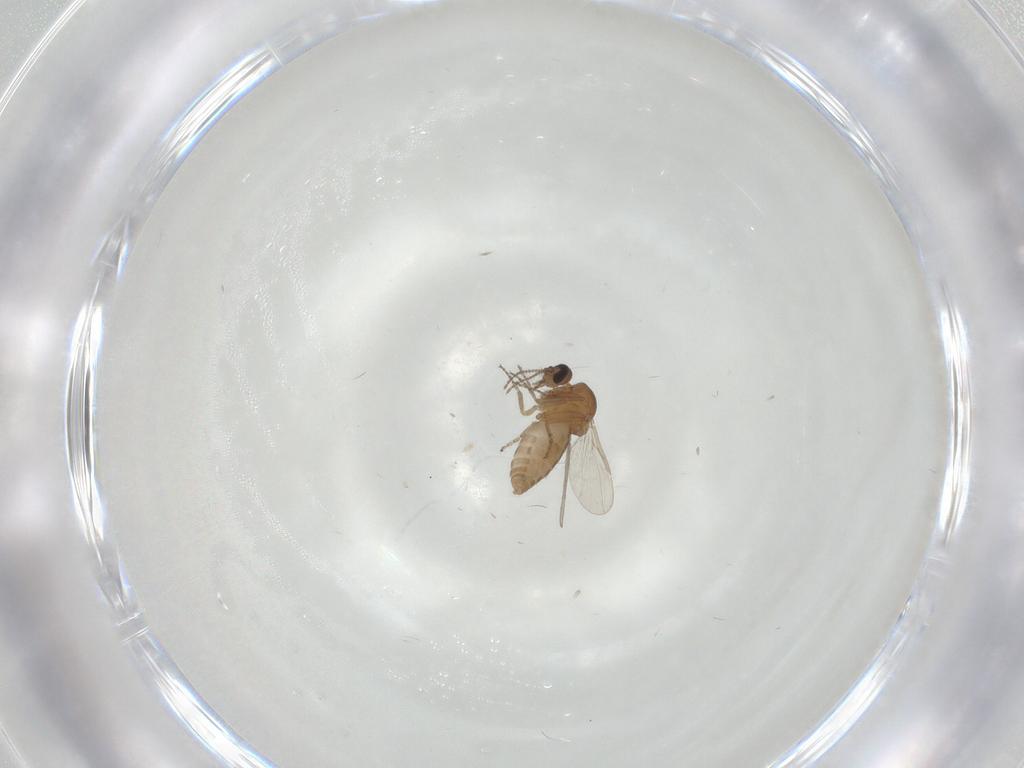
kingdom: Animalia
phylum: Arthropoda
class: Insecta
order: Diptera
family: Ceratopogonidae
